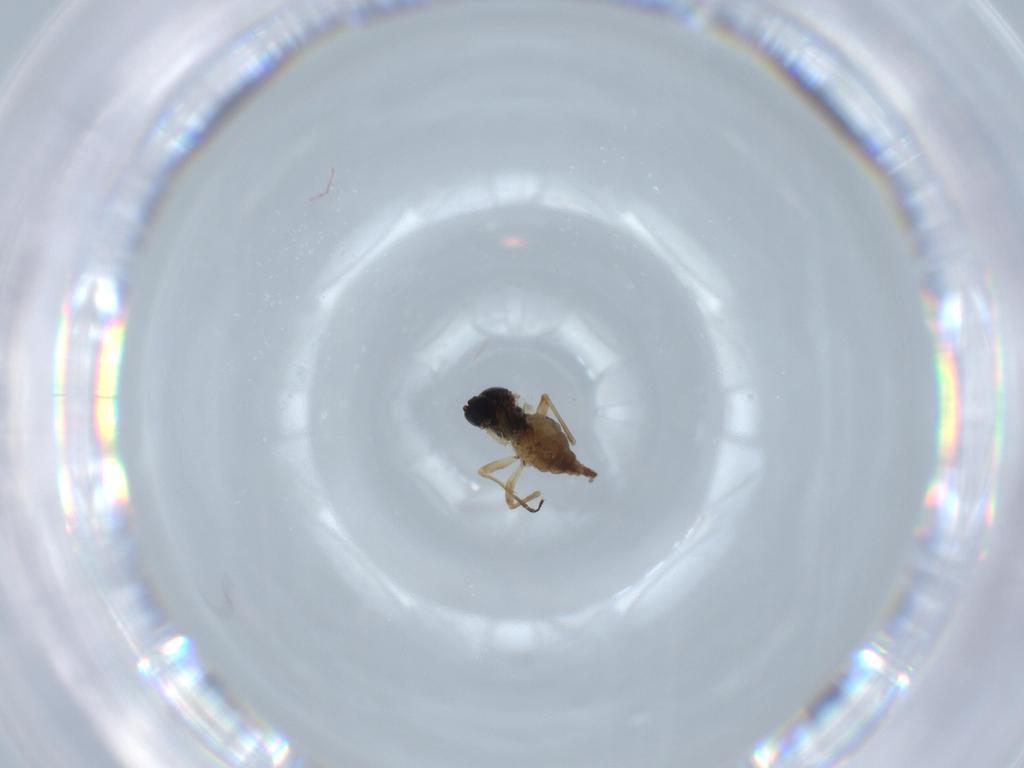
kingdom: Animalia
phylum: Arthropoda
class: Insecta
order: Diptera
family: Sciaridae
